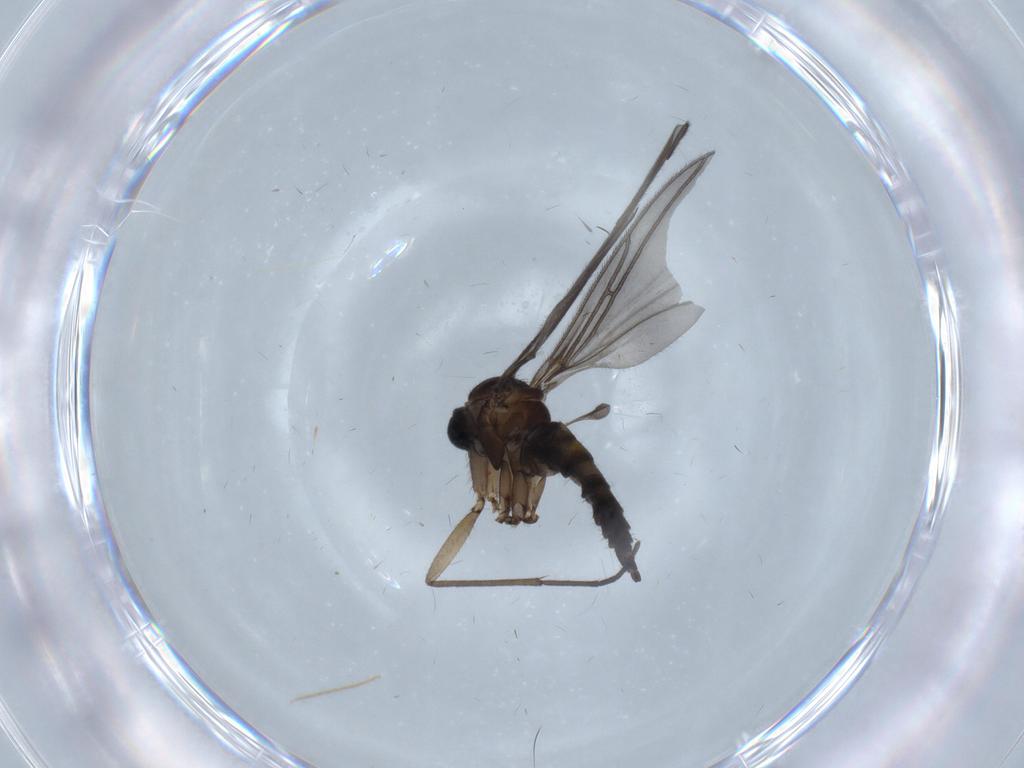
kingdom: Animalia
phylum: Arthropoda
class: Insecta
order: Diptera
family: Sciaridae
